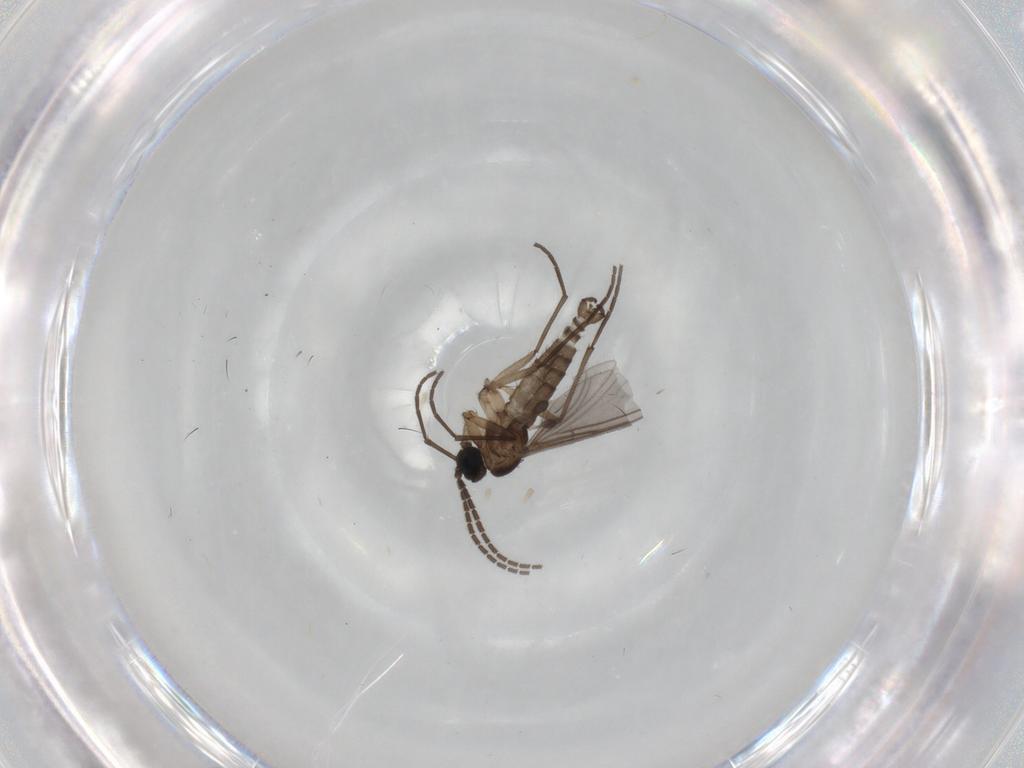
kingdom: Animalia
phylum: Arthropoda
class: Insecta
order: Diptera
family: Sciaridae
